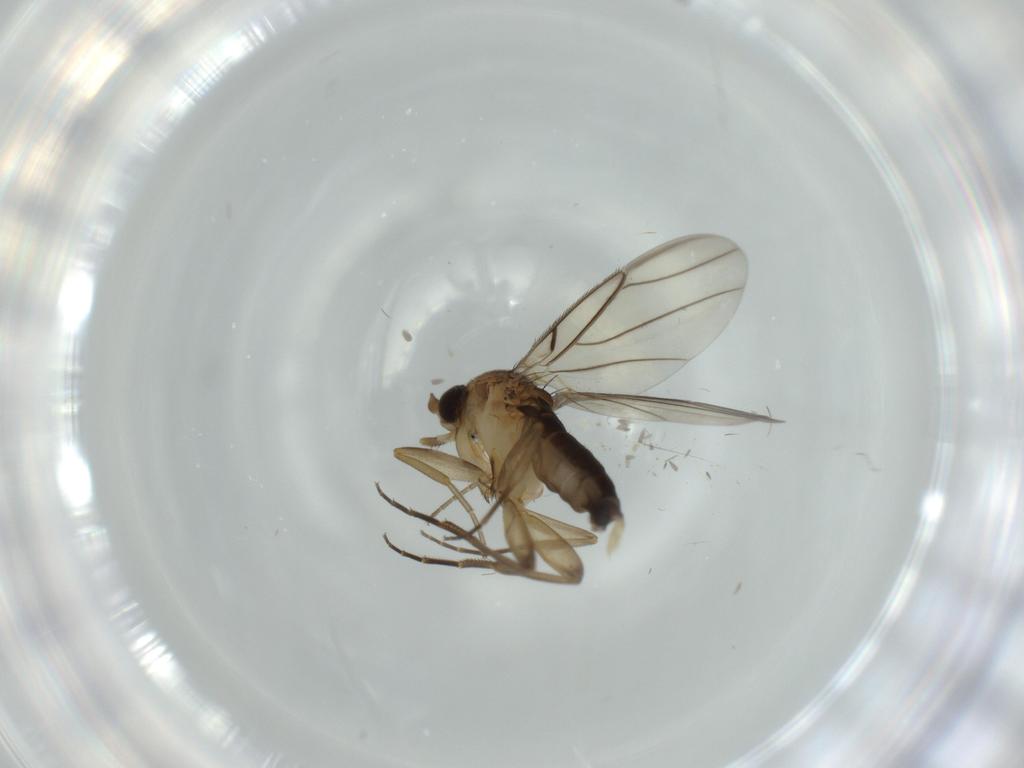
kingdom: Animalia
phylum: Arthropoda
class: Insecta
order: Diptera
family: Phoridae
